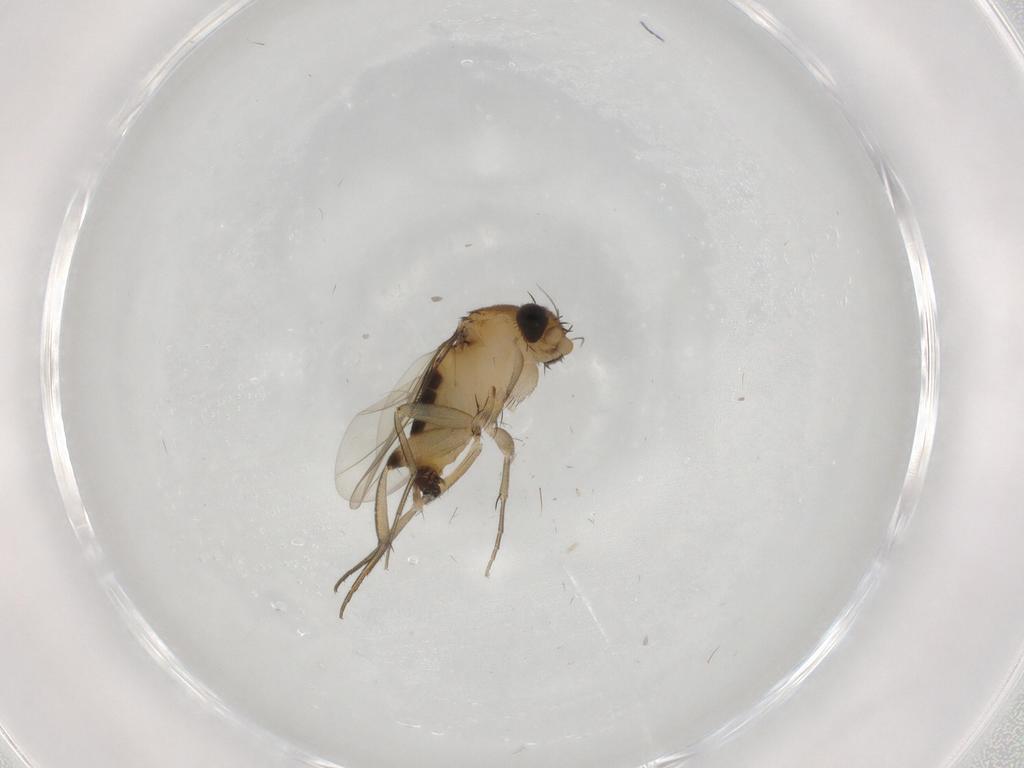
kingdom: Animalia
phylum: Arthropoda
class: Insecta
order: Diptera
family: Phoridae
